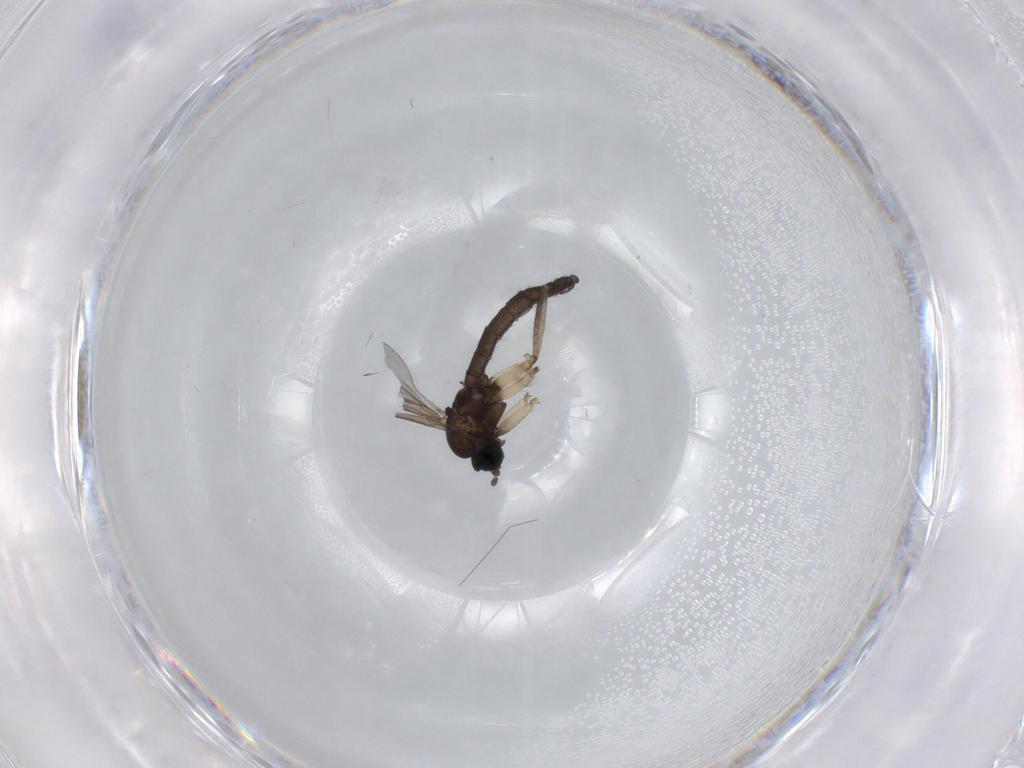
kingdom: Animalia
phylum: Arthropoda
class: Insecta
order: Diptera
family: Sciaridae
